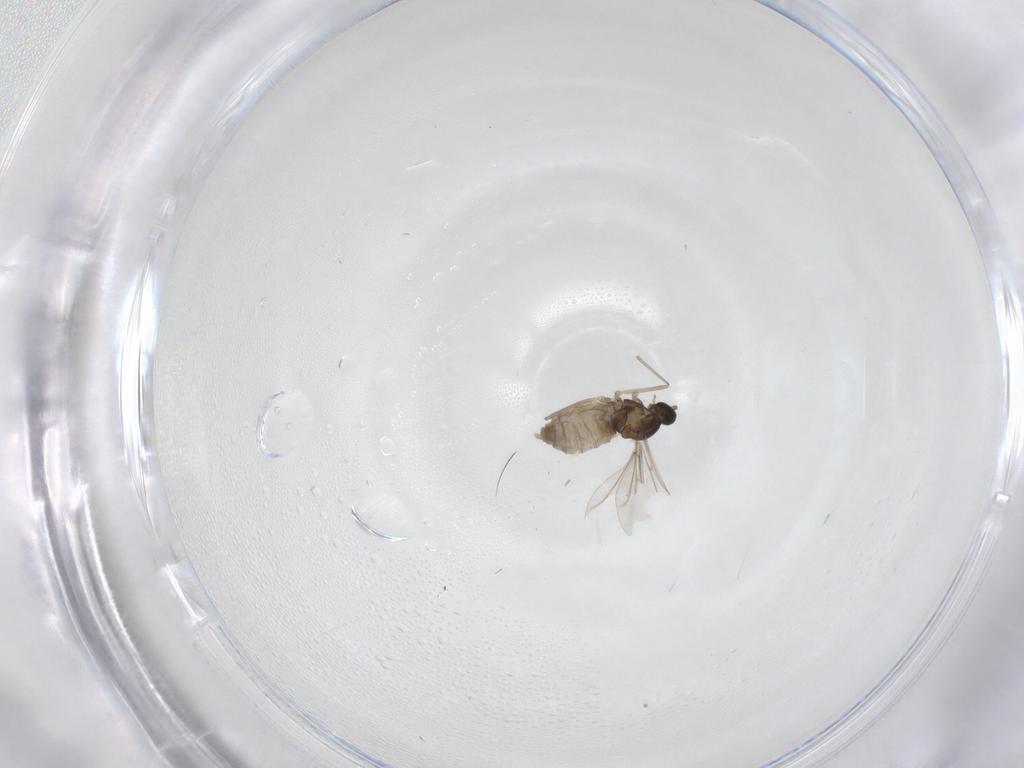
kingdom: Animalia
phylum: Arthropoda
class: Insecta
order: Diptera
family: Cecidomyiidae
